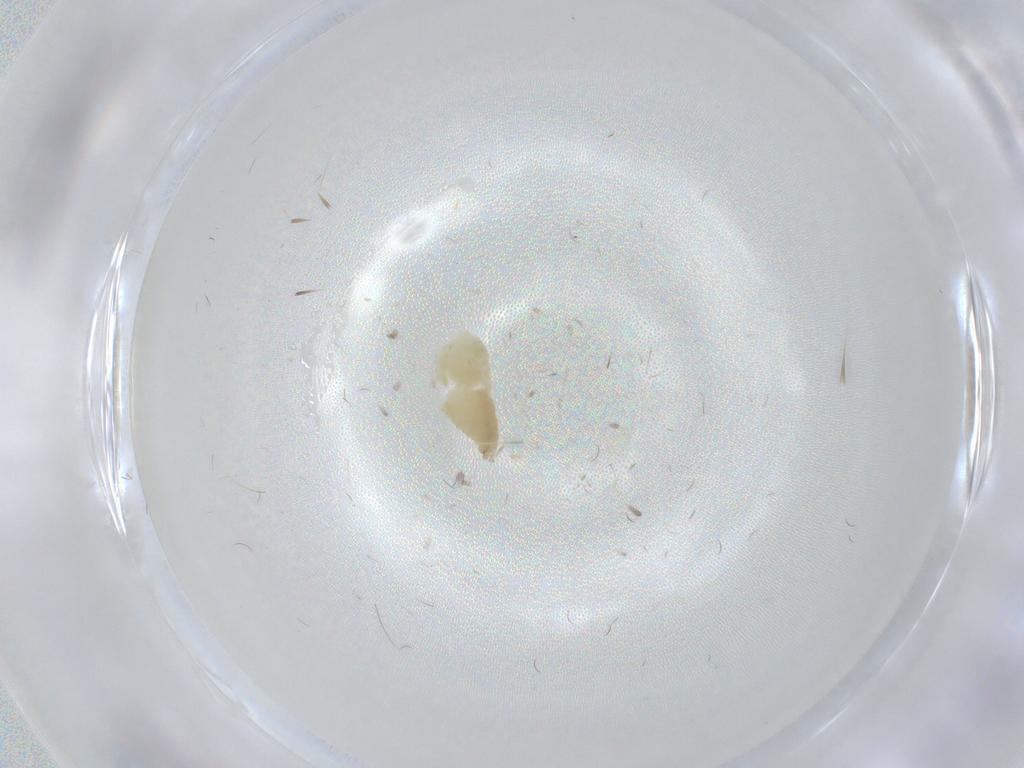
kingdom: Animalia
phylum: Arthropoda
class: Insecta
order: Diptera
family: Chironomidae
